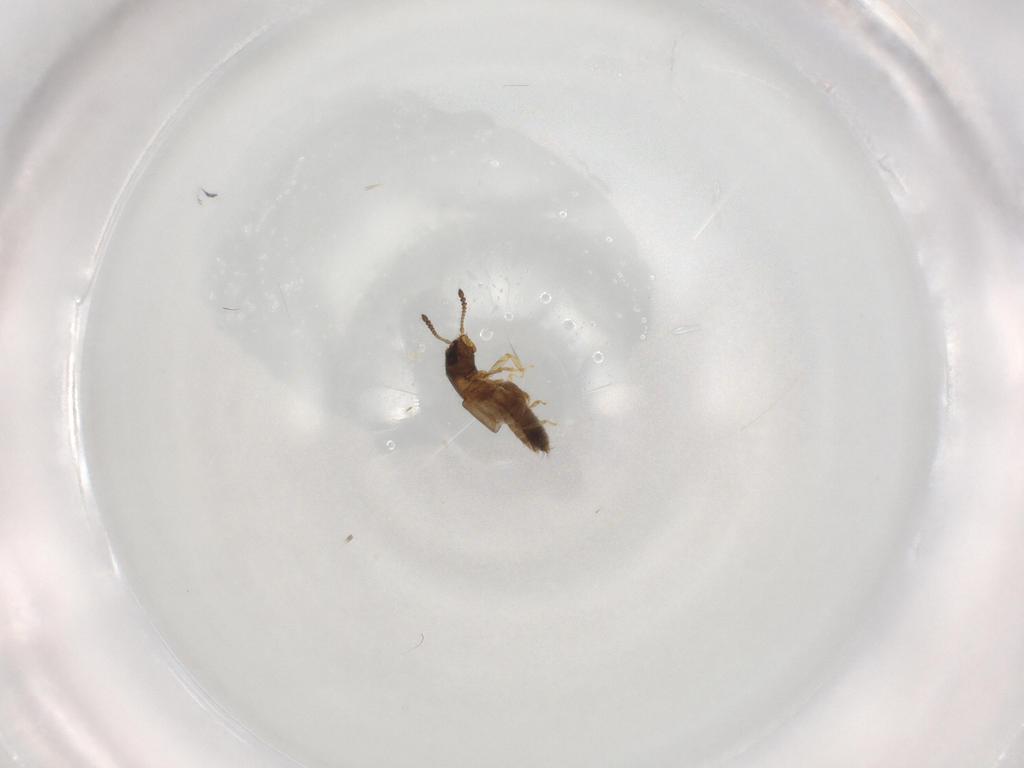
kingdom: Animalia
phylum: Arthropoda
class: Insecta
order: Coleoptera
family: Staphylinidae
